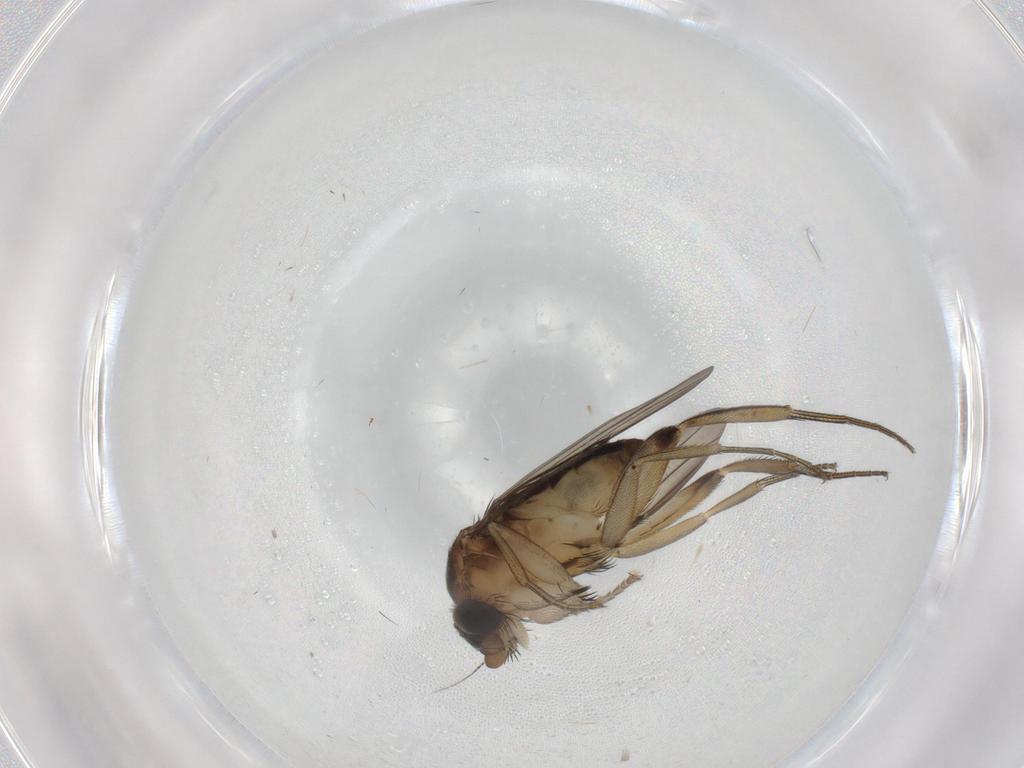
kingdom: Animalia
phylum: Arthropoda
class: Insecta
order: Diptera
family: Phoridae
